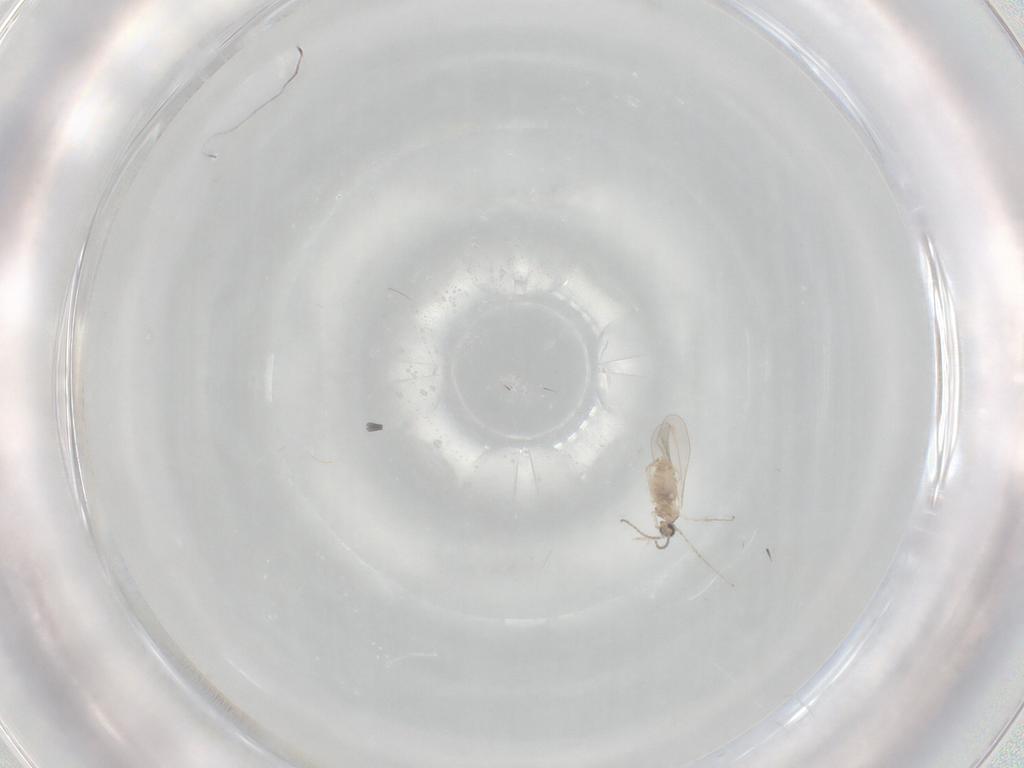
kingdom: Animalia
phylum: Arthropoda
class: Insecta
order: Diptera
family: Cecidomyiidae
